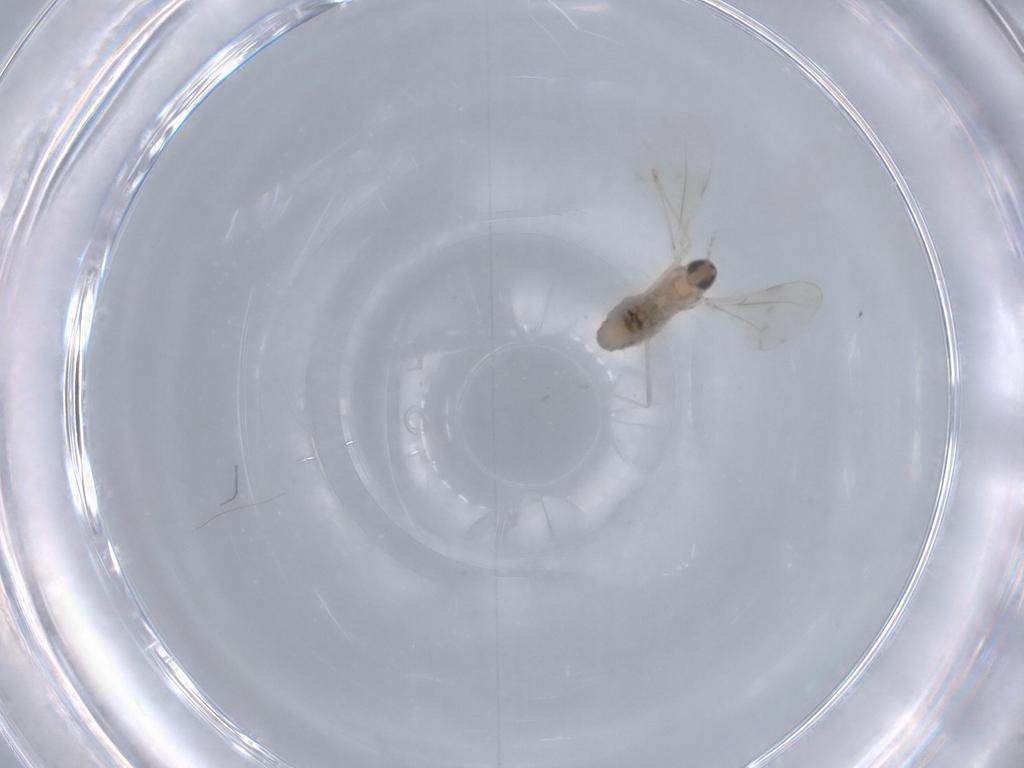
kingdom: Animalia
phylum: Arthropoda
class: Insecta
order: Diptera
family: Cecidomyiidae
